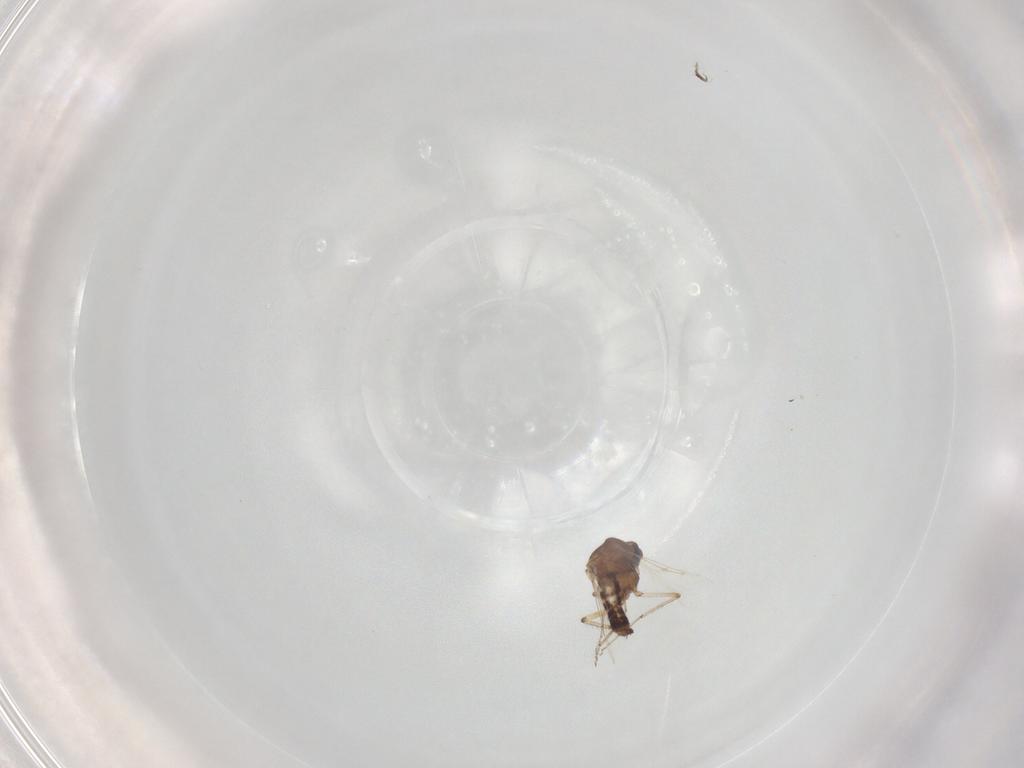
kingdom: Animalia
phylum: Arthropoda
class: Insecta
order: Diptera
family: Ceratopogonidae
